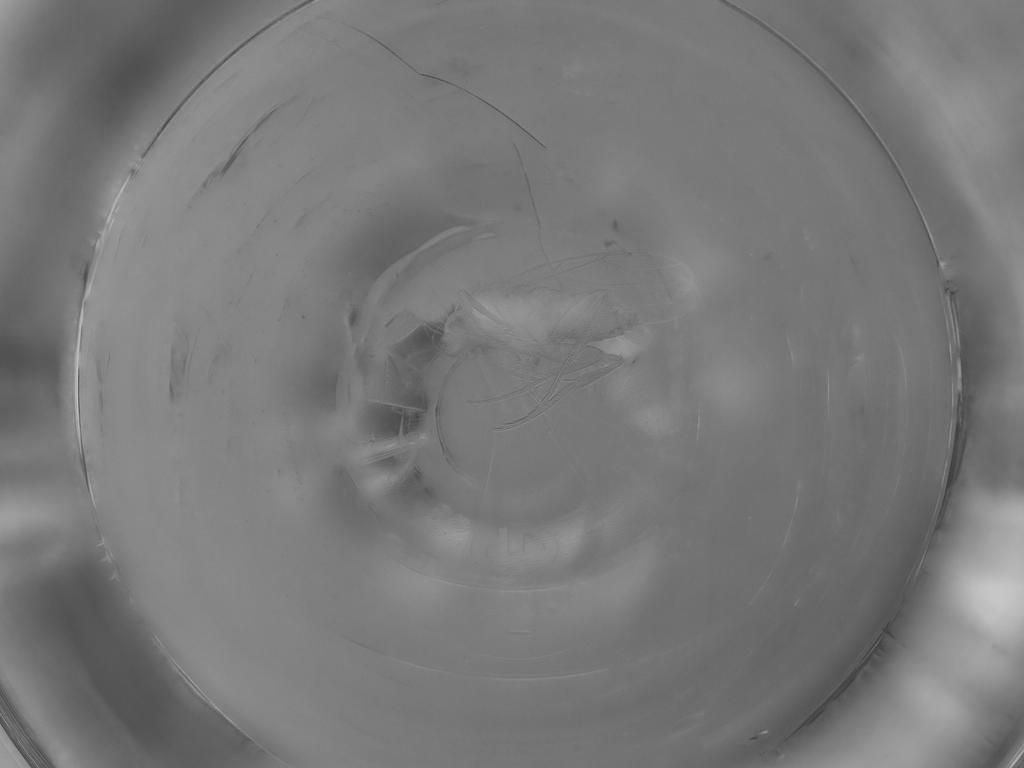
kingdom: Animalia
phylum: Arthropoda
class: Insecta
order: Diptera
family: Phoridae
